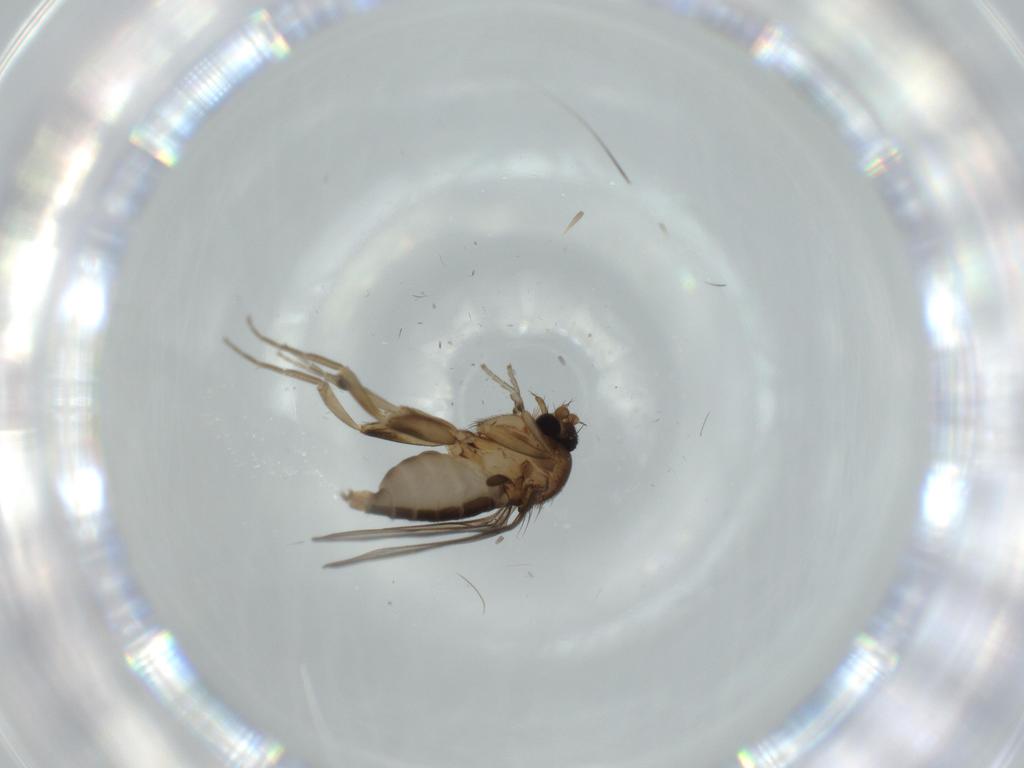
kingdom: Animalia
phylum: Arthropoda
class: Insecta
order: Diptera
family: Phoridae
